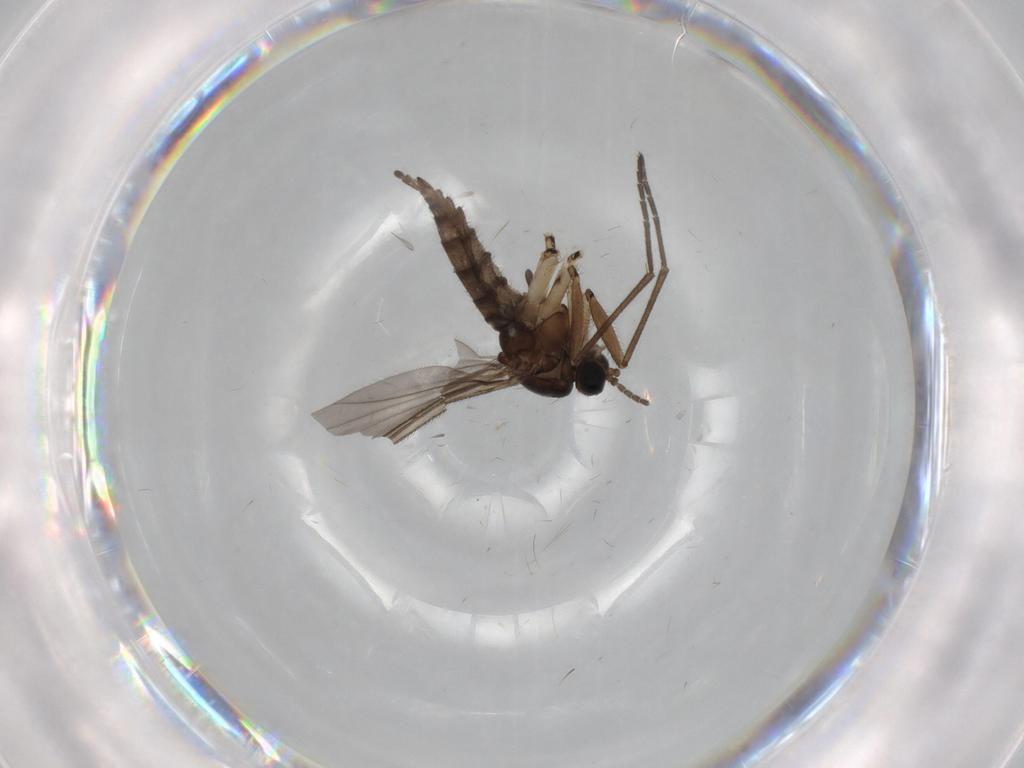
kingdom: Animalia
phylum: Arthropoda
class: Insecta
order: Diptera
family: Sciaridae
